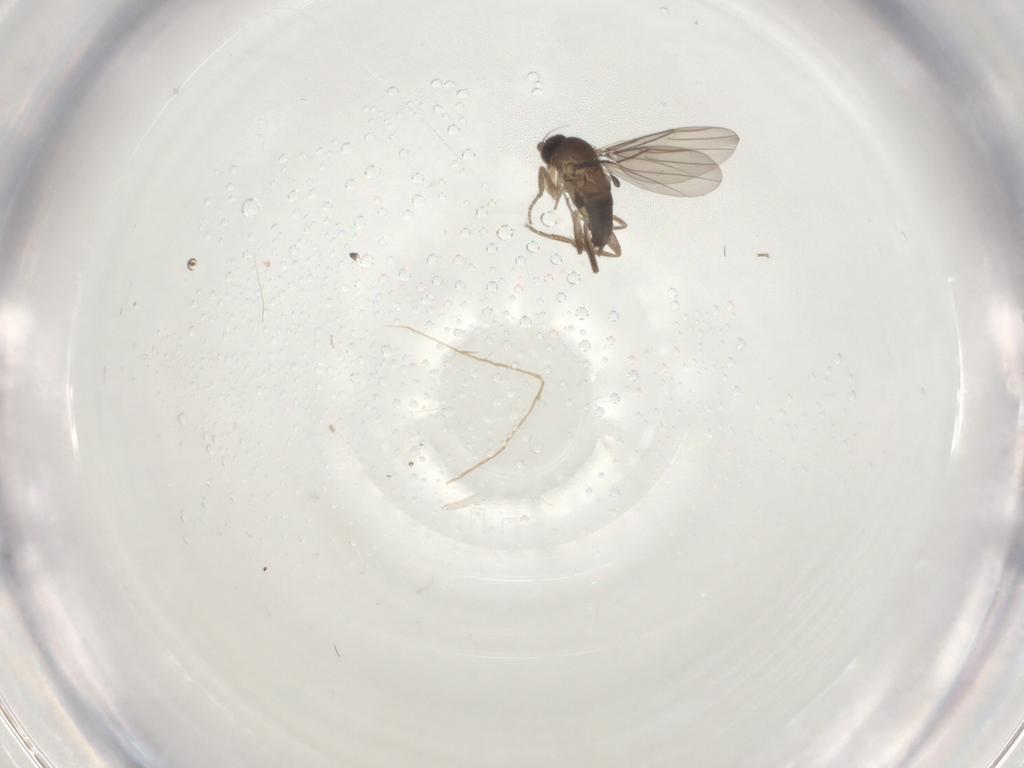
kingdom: Animalia
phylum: Arthropoda
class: Insecta
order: Diptera
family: Sciaridae
